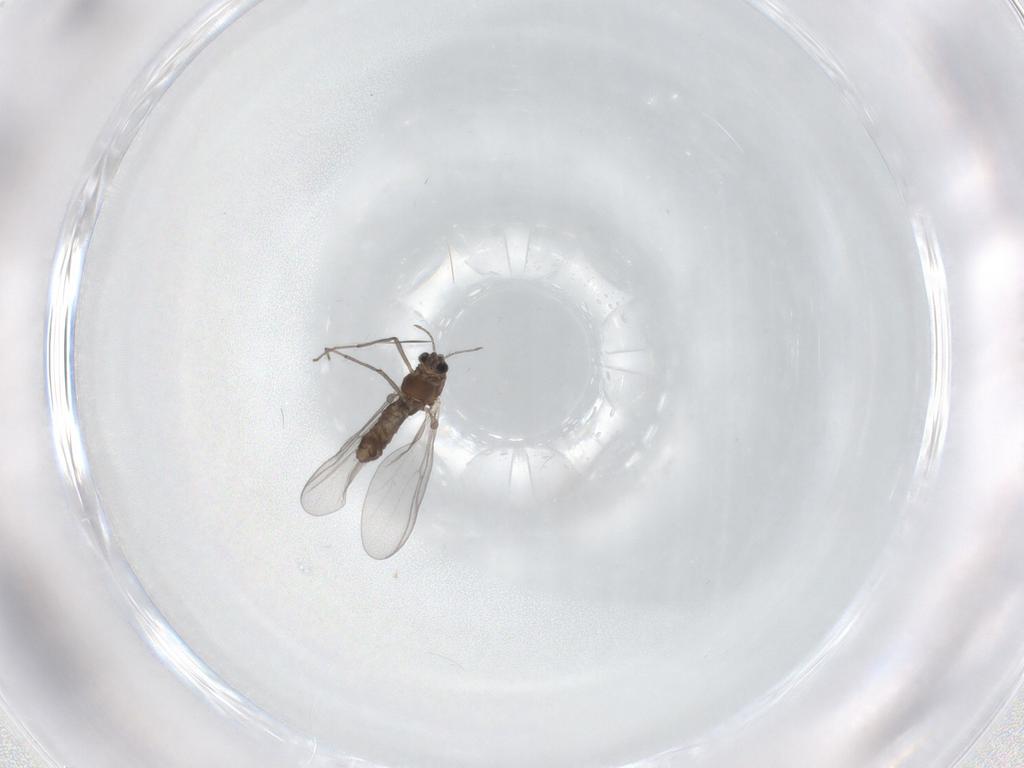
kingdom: Animalia
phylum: Arthropoda
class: Insecta
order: Diptera
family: Chironomidae
